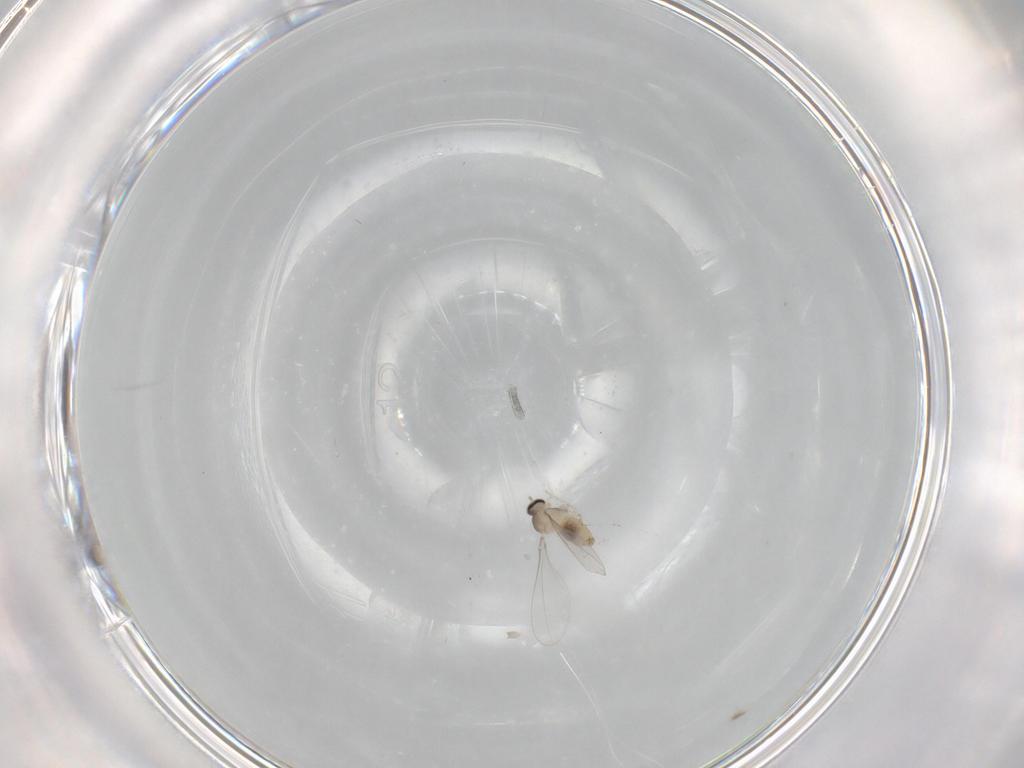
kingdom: Animalia
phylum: Arthropoda
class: Insecta
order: Diptera
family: Cecidomyiidae
